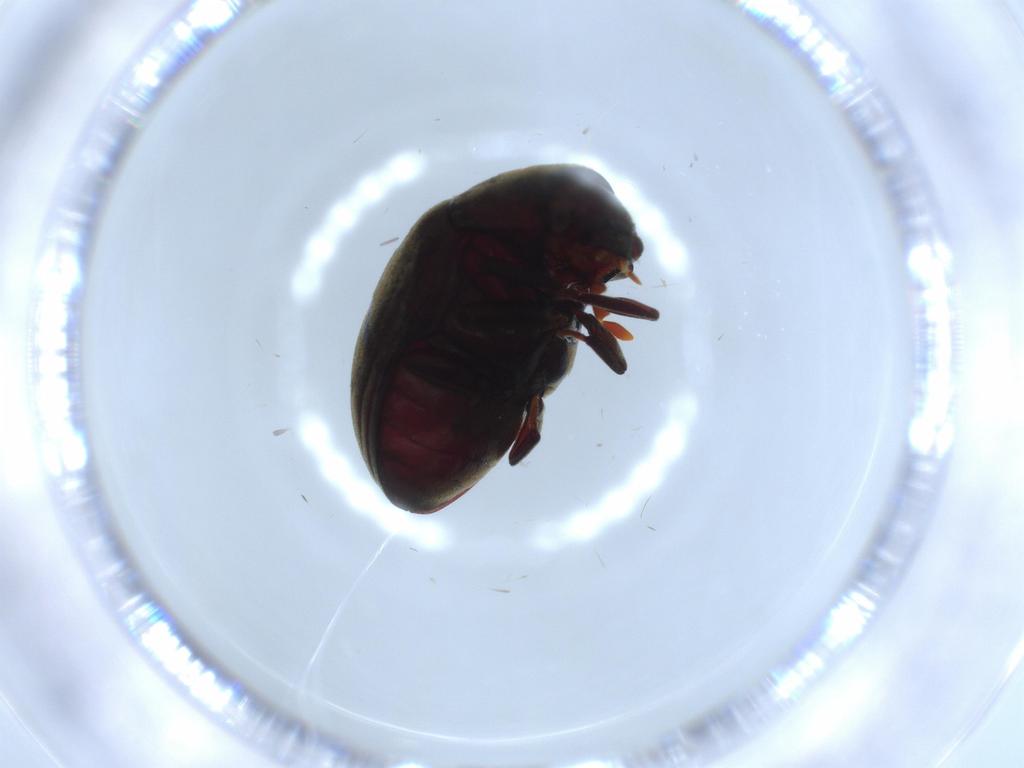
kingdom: Animalia
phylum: Arthropoda
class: Insecta
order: Coleoptera
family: Ptinidae
